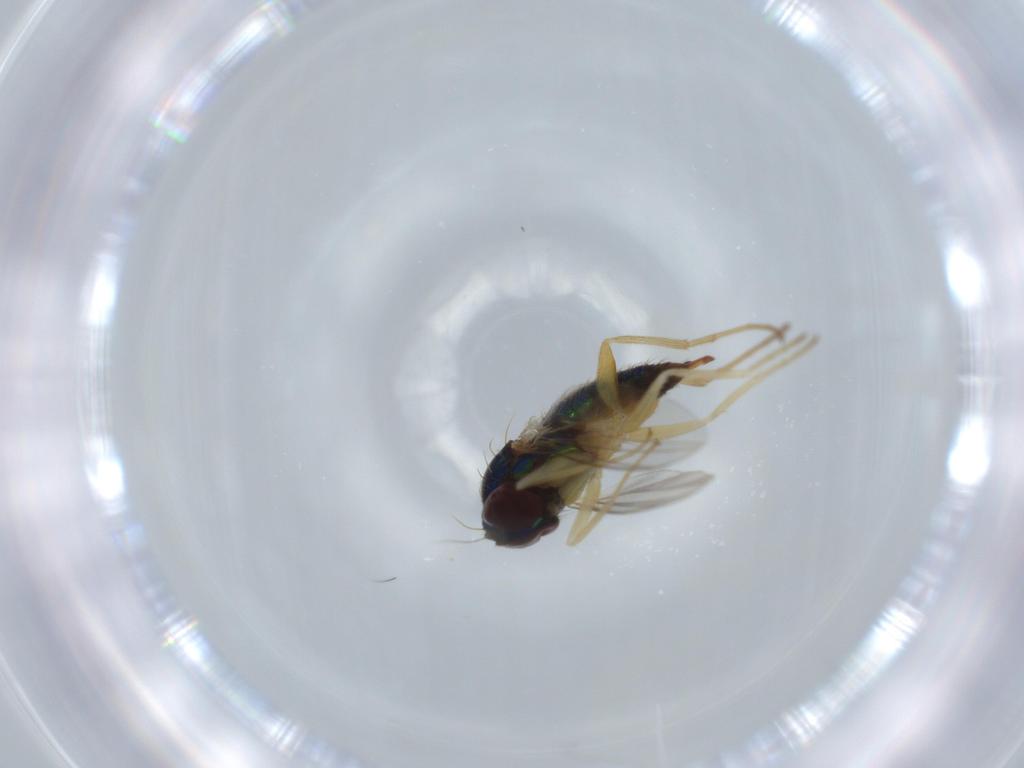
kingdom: Animalia
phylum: Arthropoda
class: Insecta
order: Diptera
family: Dolichopodidae
